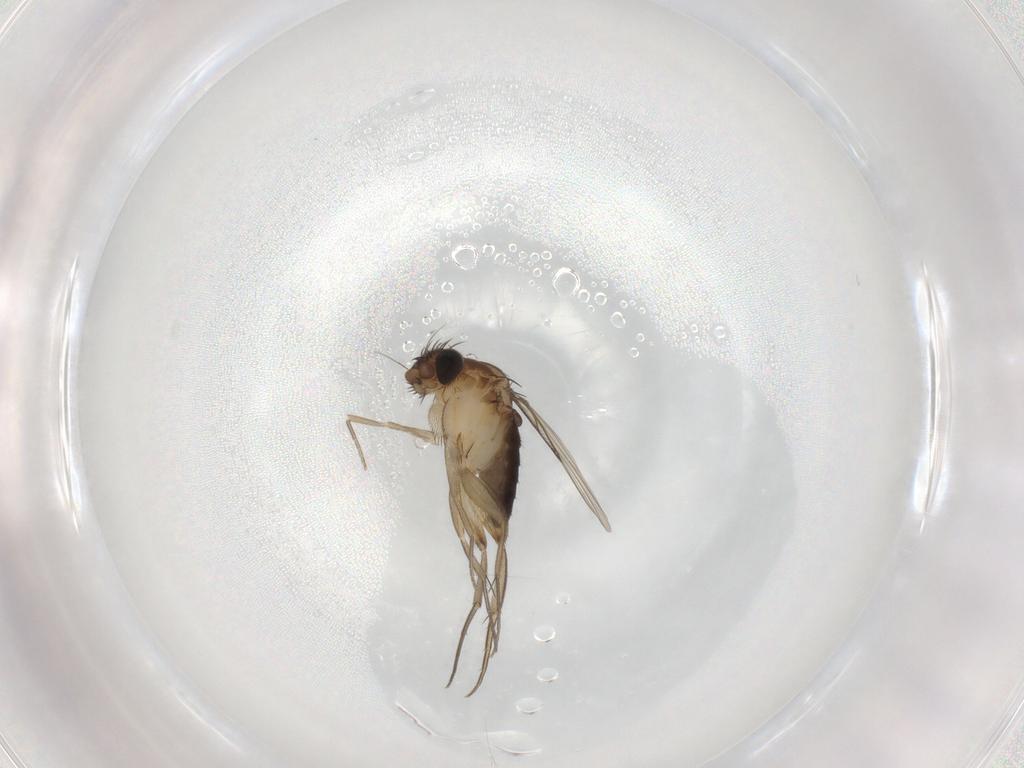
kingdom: Animalia
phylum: Arthropoda
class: Insecta
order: Diptera
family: Phoridae
